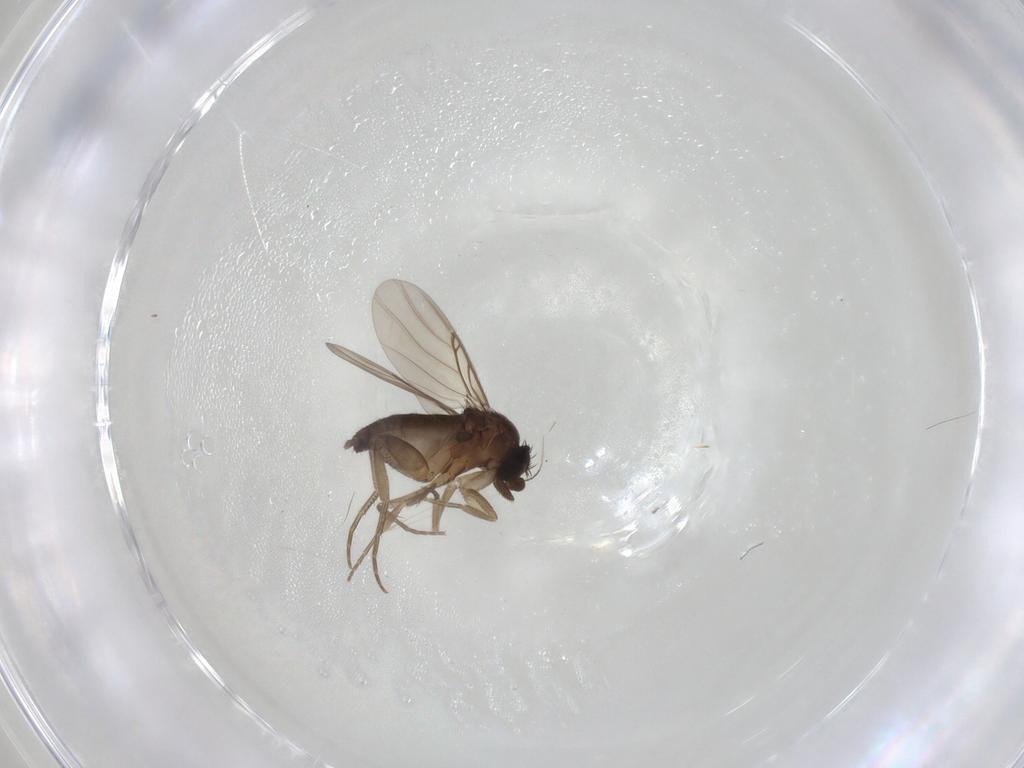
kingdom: Animalia
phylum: Arthropoda
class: Insecta
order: Diptera
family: Phoridae
